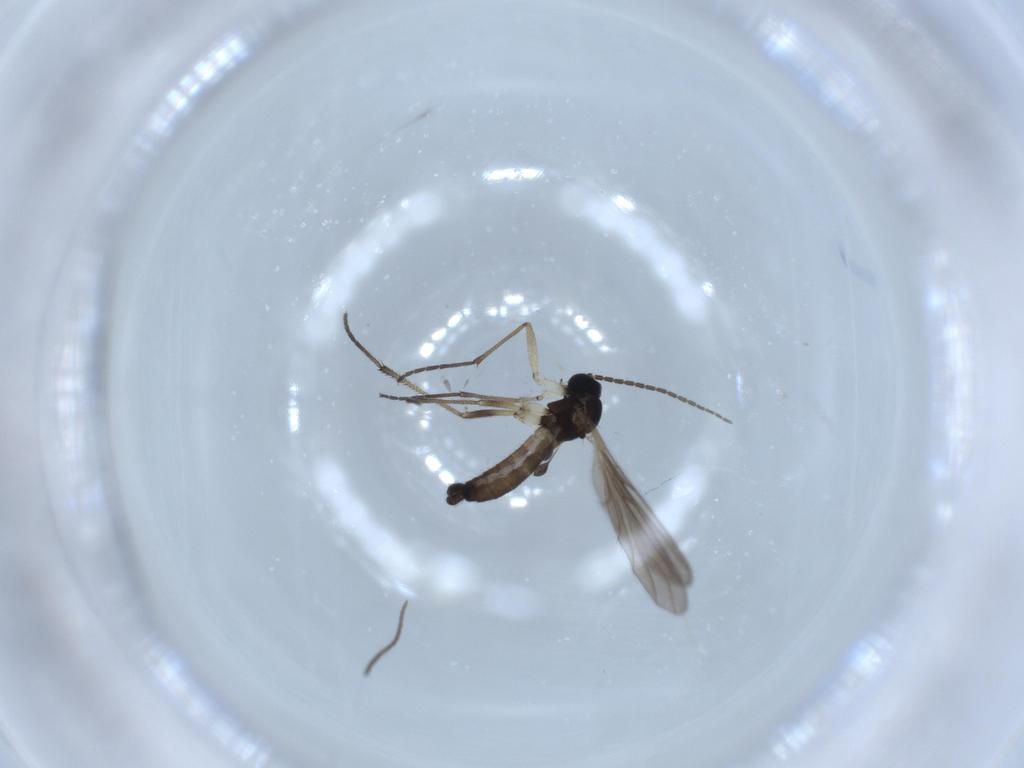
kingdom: Animalia
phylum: Arthropoda
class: Insecta
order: Diptera
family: Sciaridae
